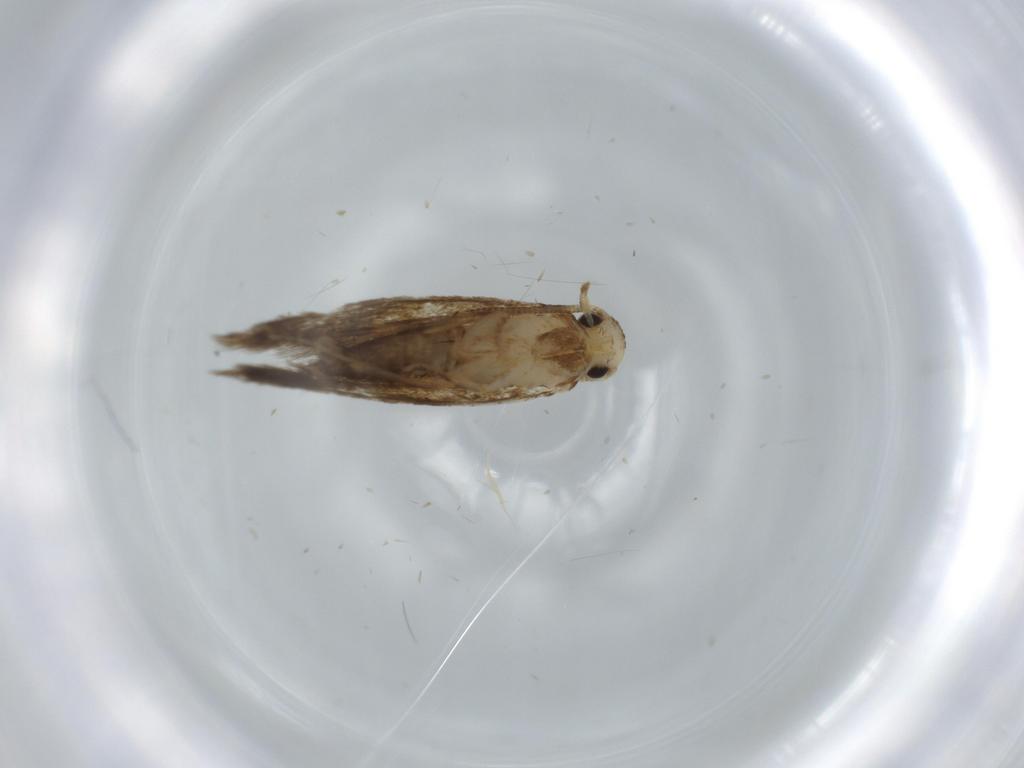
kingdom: Animalia
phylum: Arthropoda
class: Insecta
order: Lepidoptera
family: Tineidae
